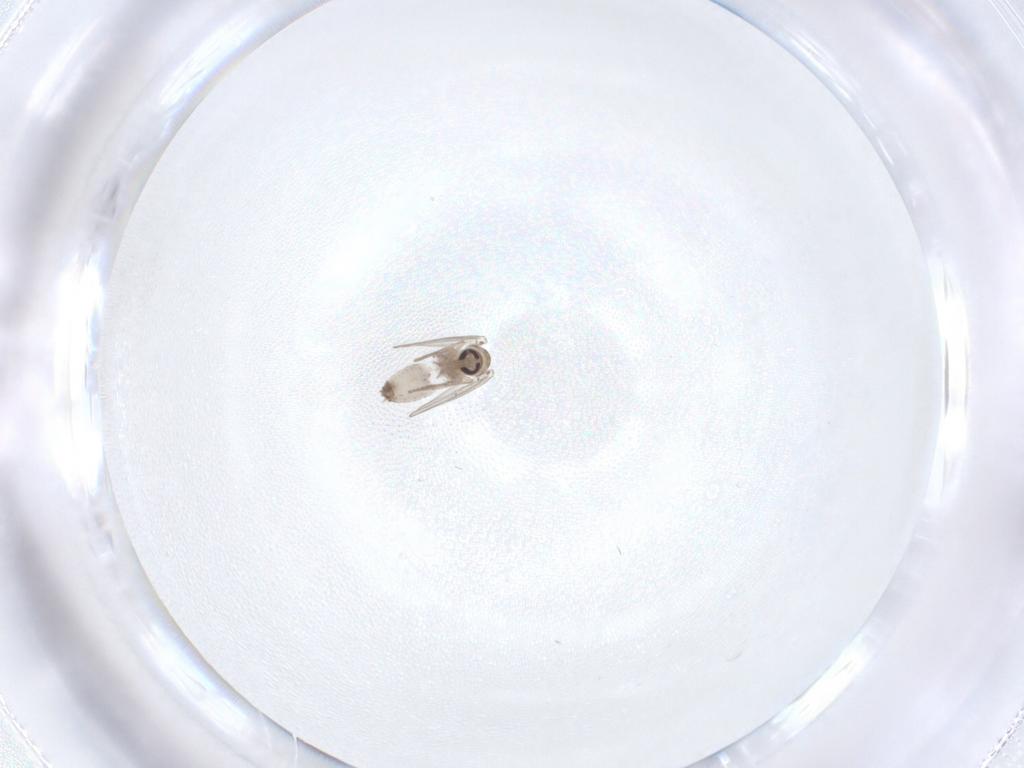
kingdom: Animalia
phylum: Arthropoda
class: Insecta
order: Diptera
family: Psychodidae
